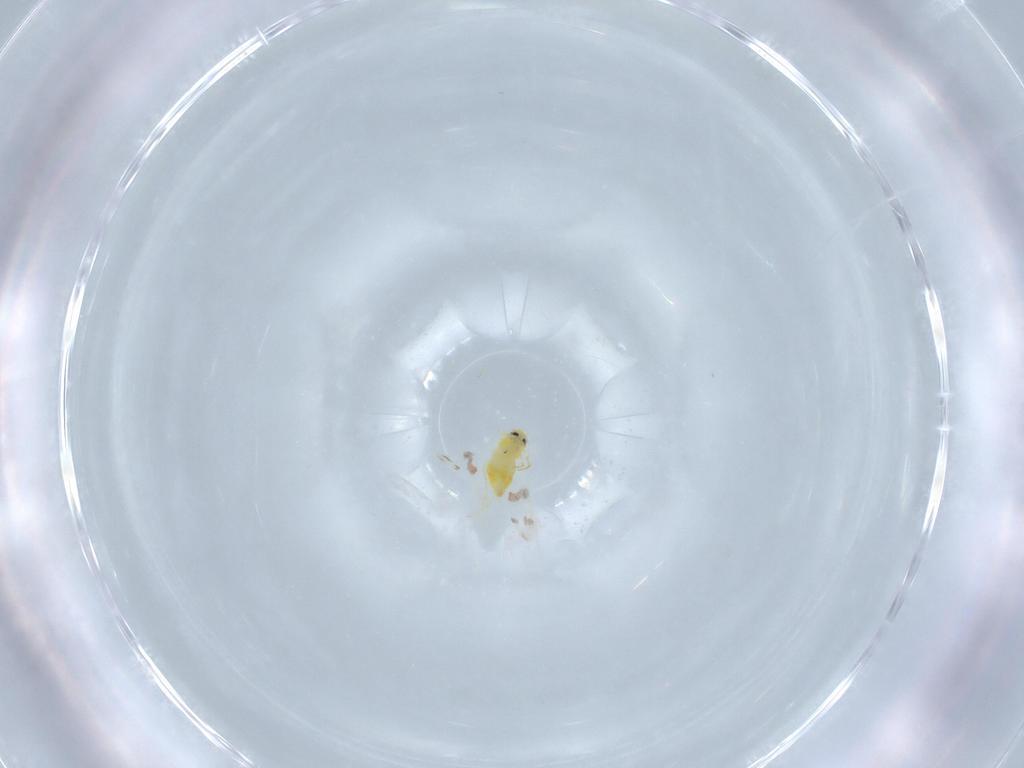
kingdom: Animalia
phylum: Arthropoda
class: Insecta
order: Hemiptera
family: Aleyrodidae
